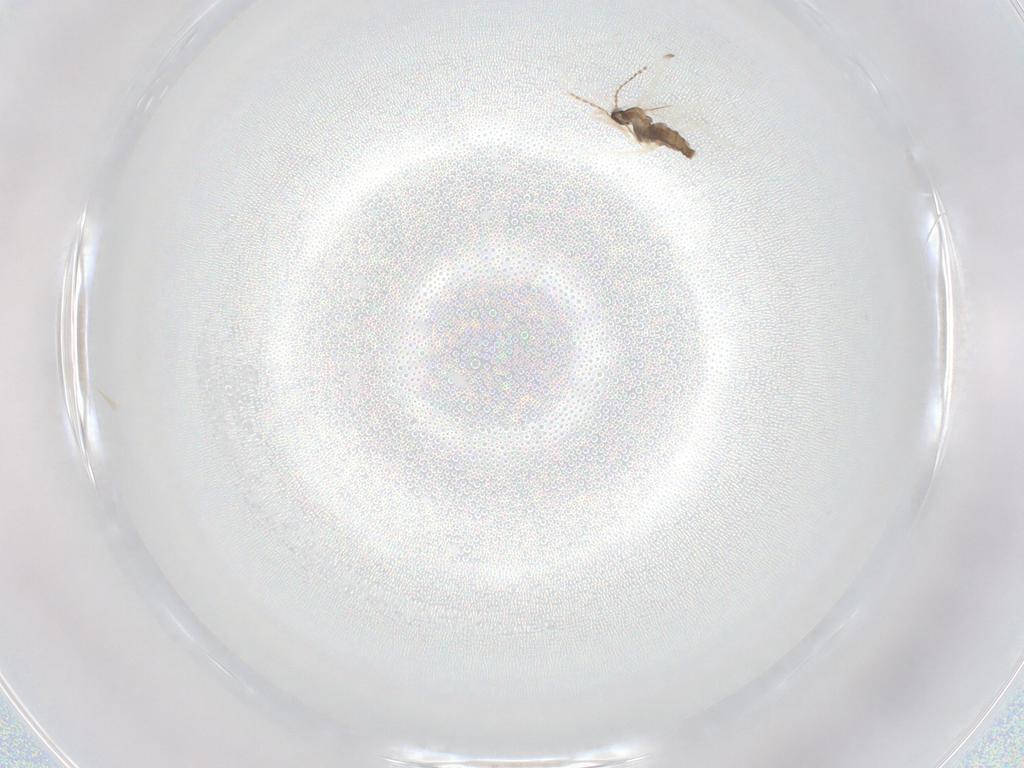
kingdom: Animalia
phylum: Arthropoda
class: Insecta
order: Diptera
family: Cecidomyiidae
